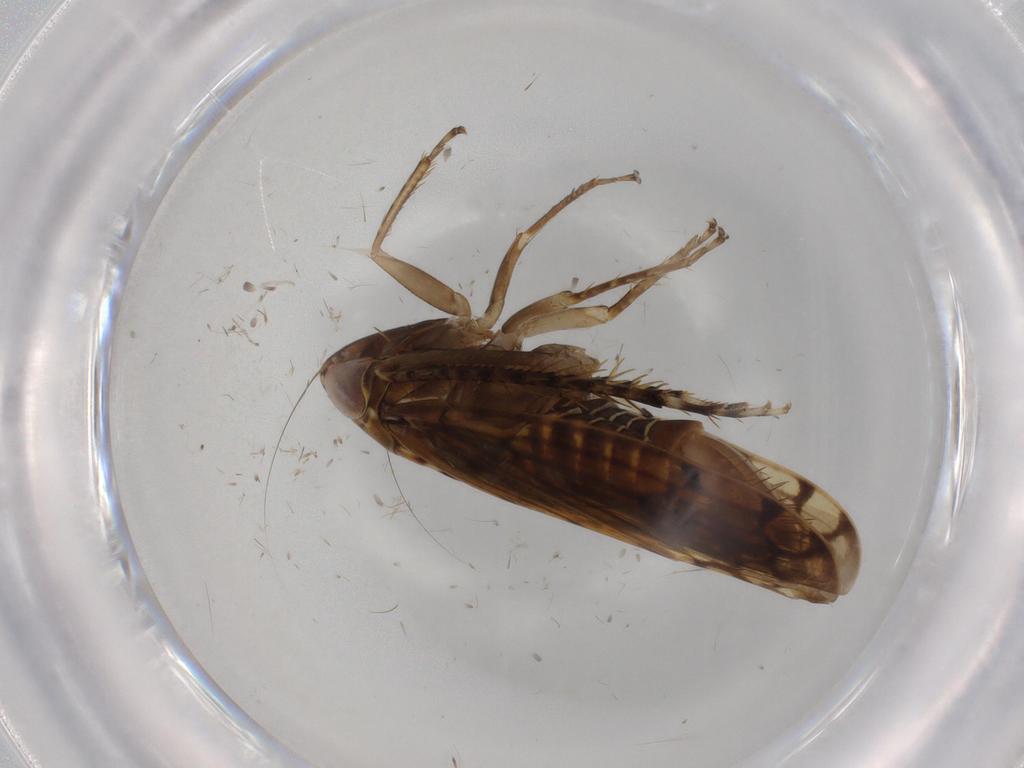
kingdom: Animalia
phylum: Arthropoda
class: Insecta
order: Hemiptera
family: Cicadellidae
